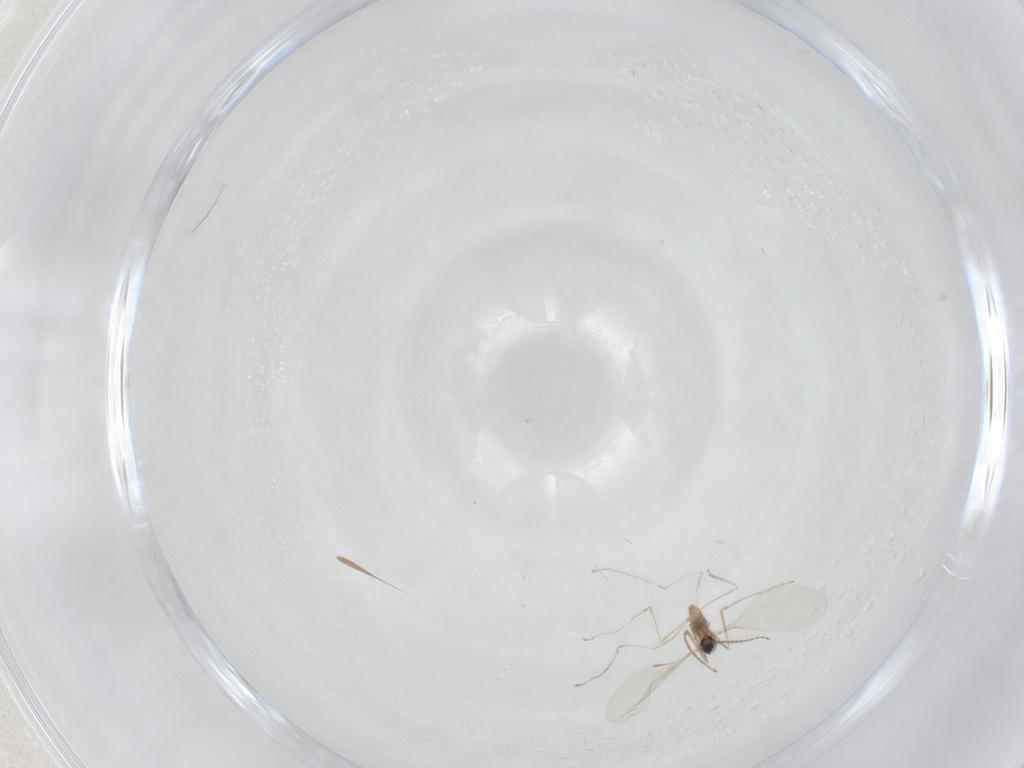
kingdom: Animalia
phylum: Arthropoda
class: Insecta
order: Diptera
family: Cecidomyiidae
